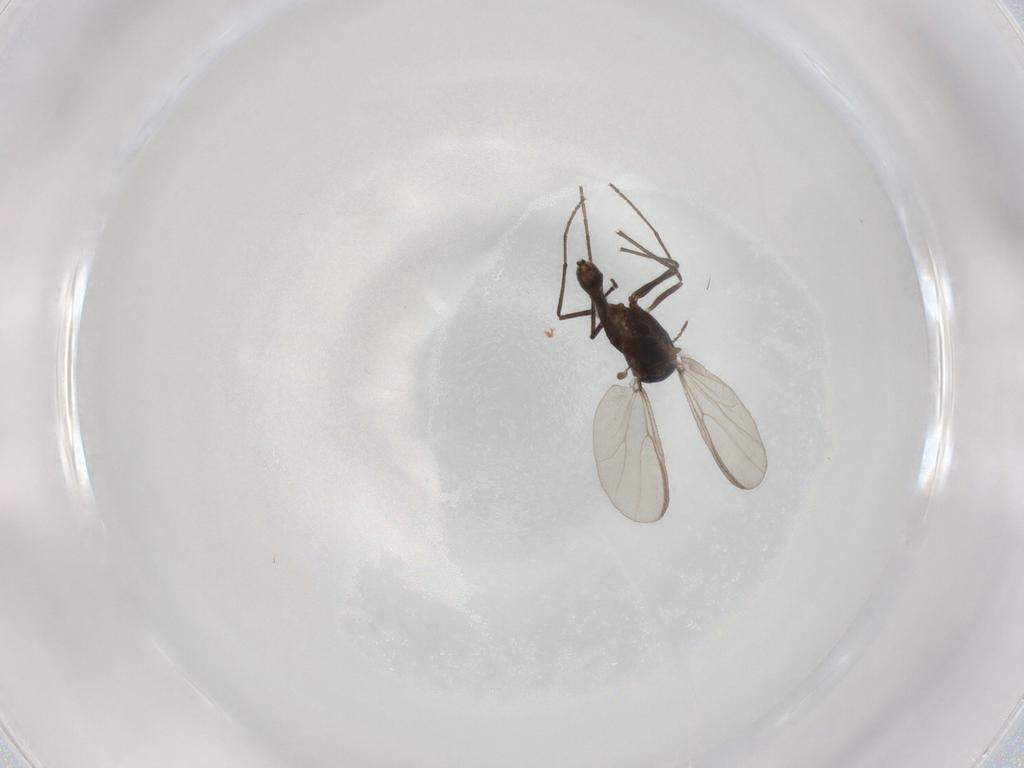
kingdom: Animalia
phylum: Arthropoda
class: Insecta
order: Diptera
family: Chironomidae
